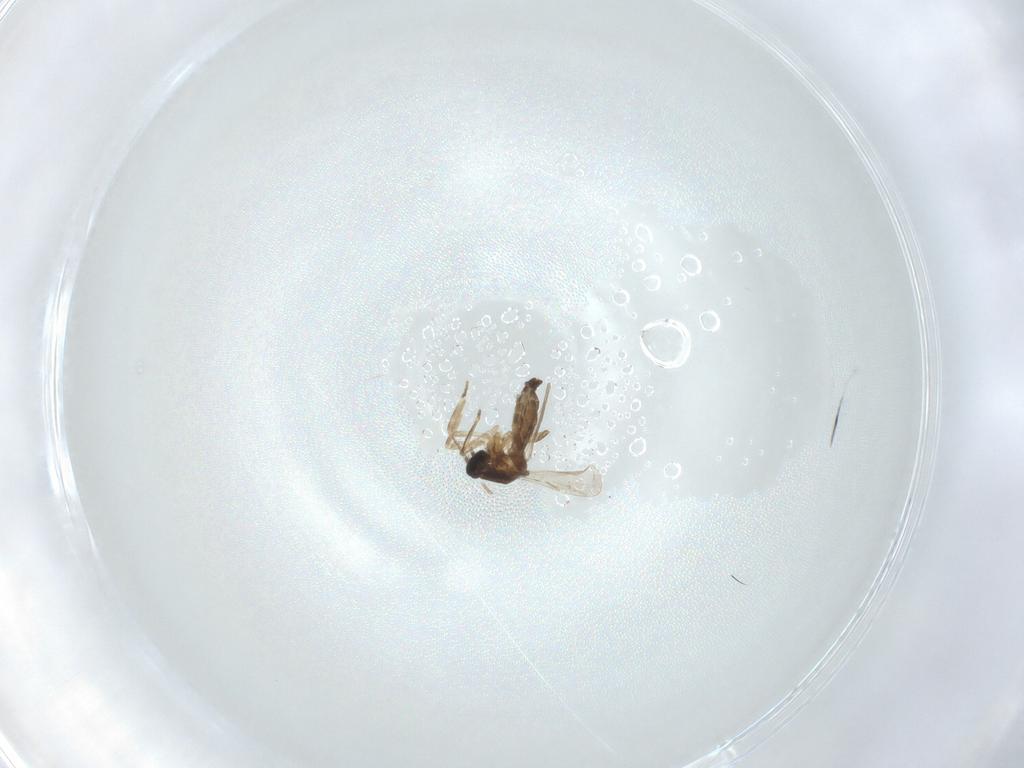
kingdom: Animalia
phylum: Arthropoda
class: Insecta
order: Diptera
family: Ceratopogonidae
